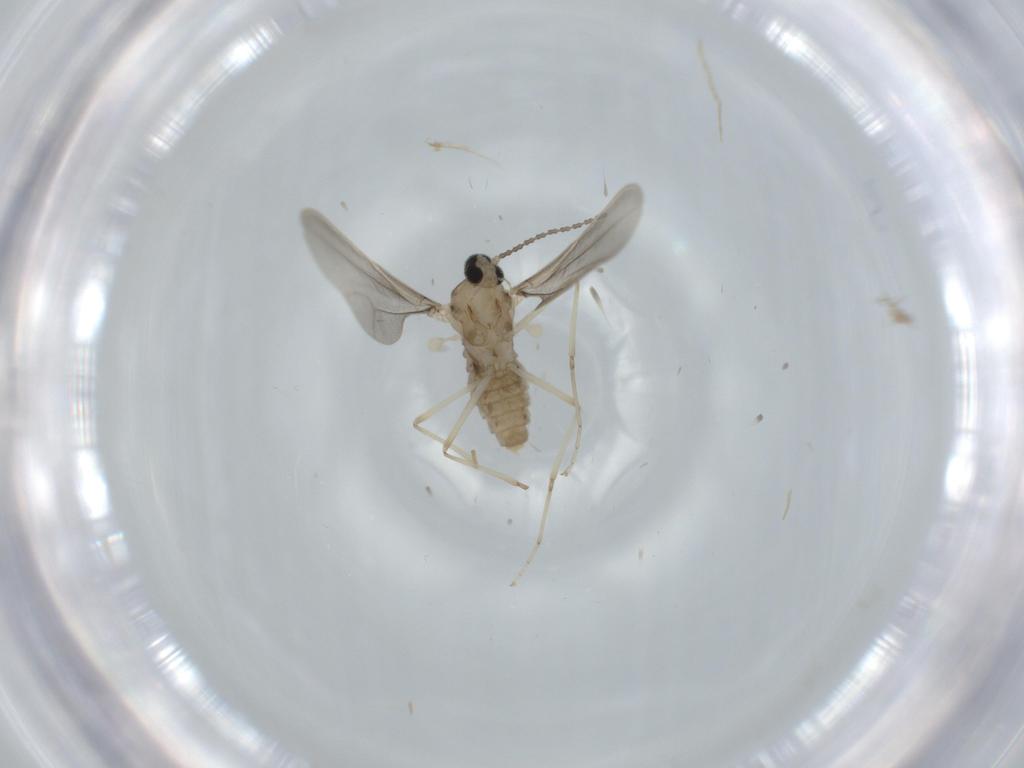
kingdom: Animalia
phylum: Arthropoda
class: Insecta
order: Diptera
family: Cecidomyiidae
